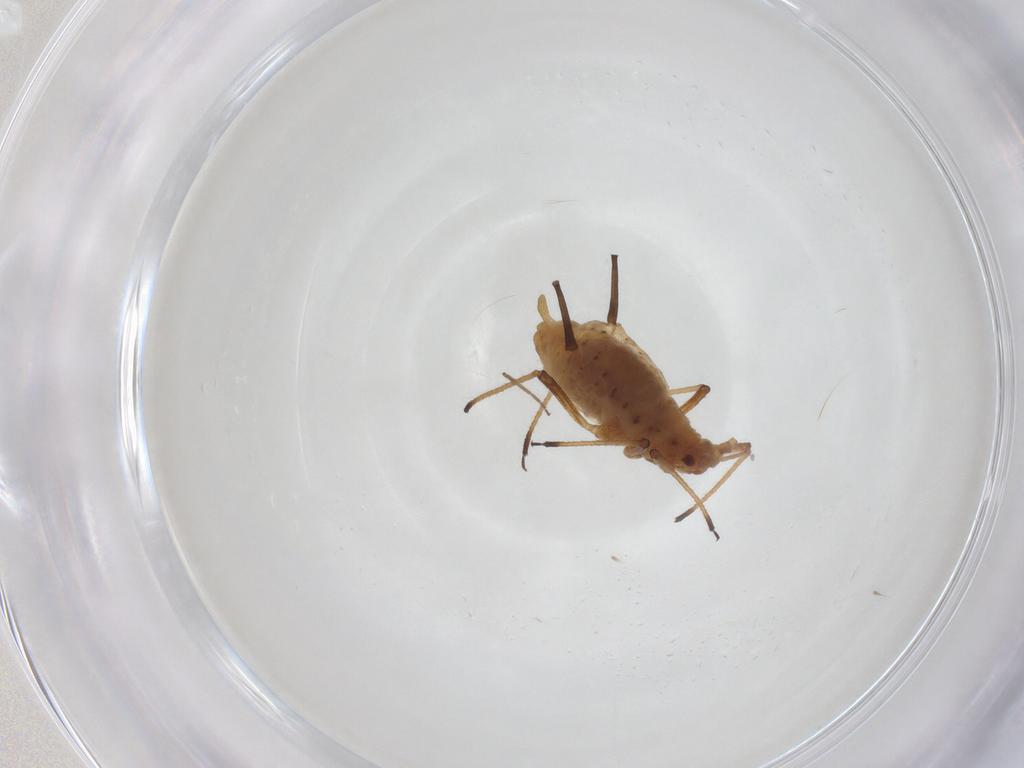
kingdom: Animalia
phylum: Arthropoda
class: Insecta
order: Hemiptera
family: Aphididae
